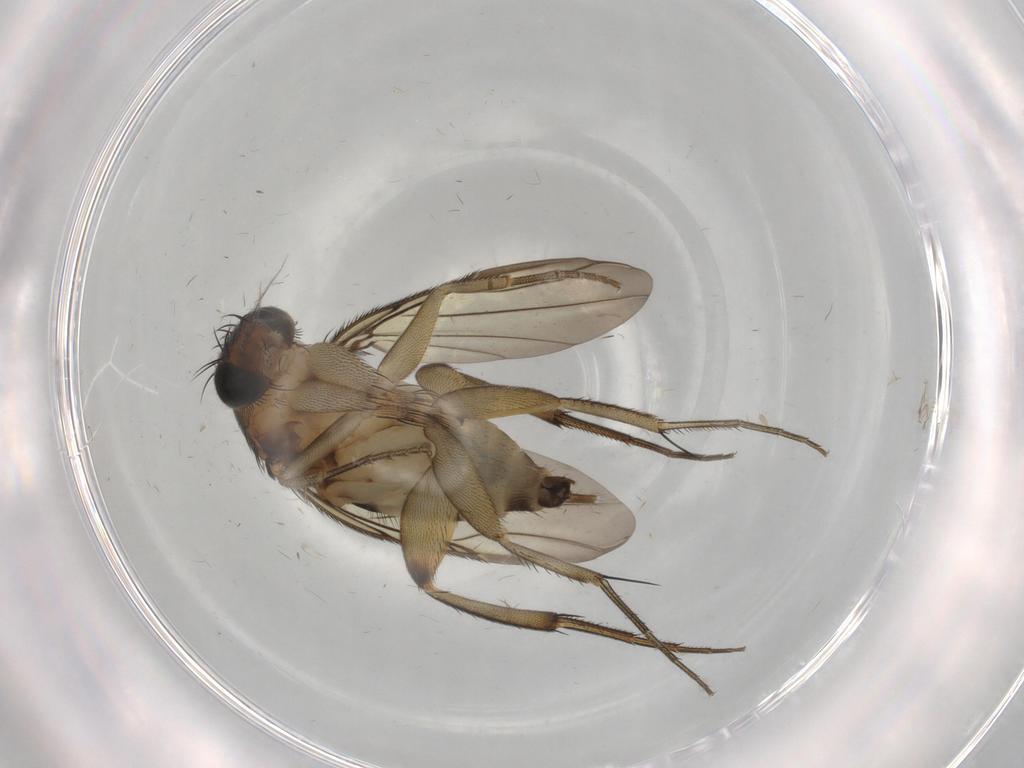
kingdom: Animalia
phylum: Arthropoda
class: Insecta
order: Diptera
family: Phoridae
